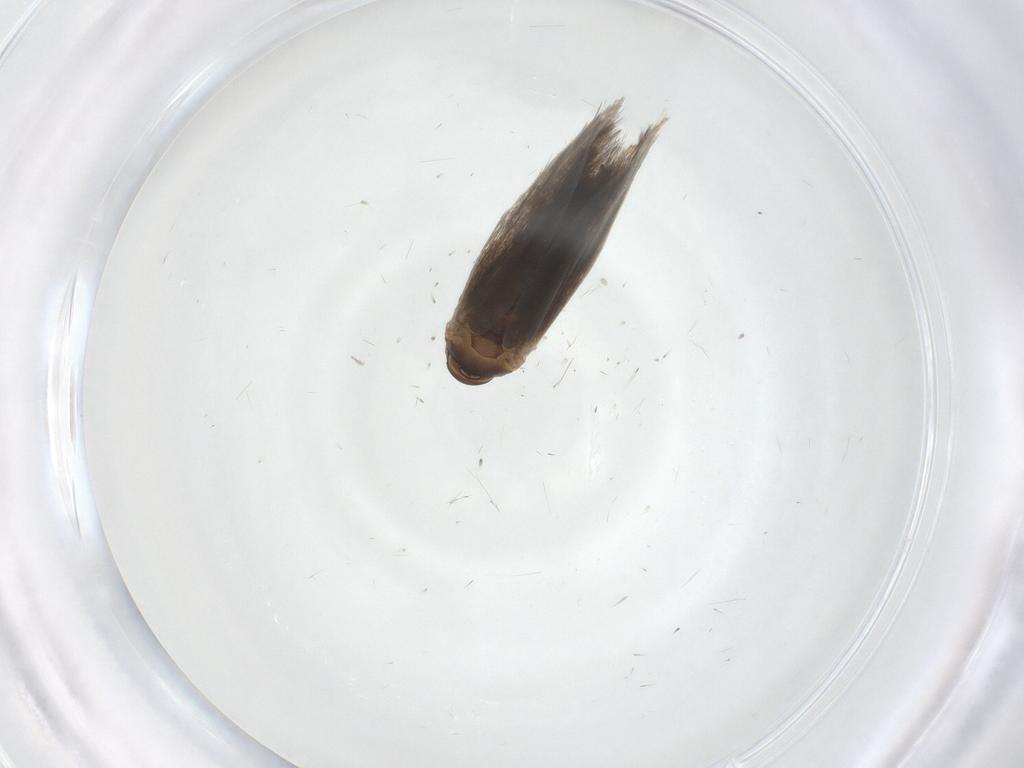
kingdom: Animalia
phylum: Arthropoda
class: Insecta
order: Lepidoptera
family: Elachistidae
